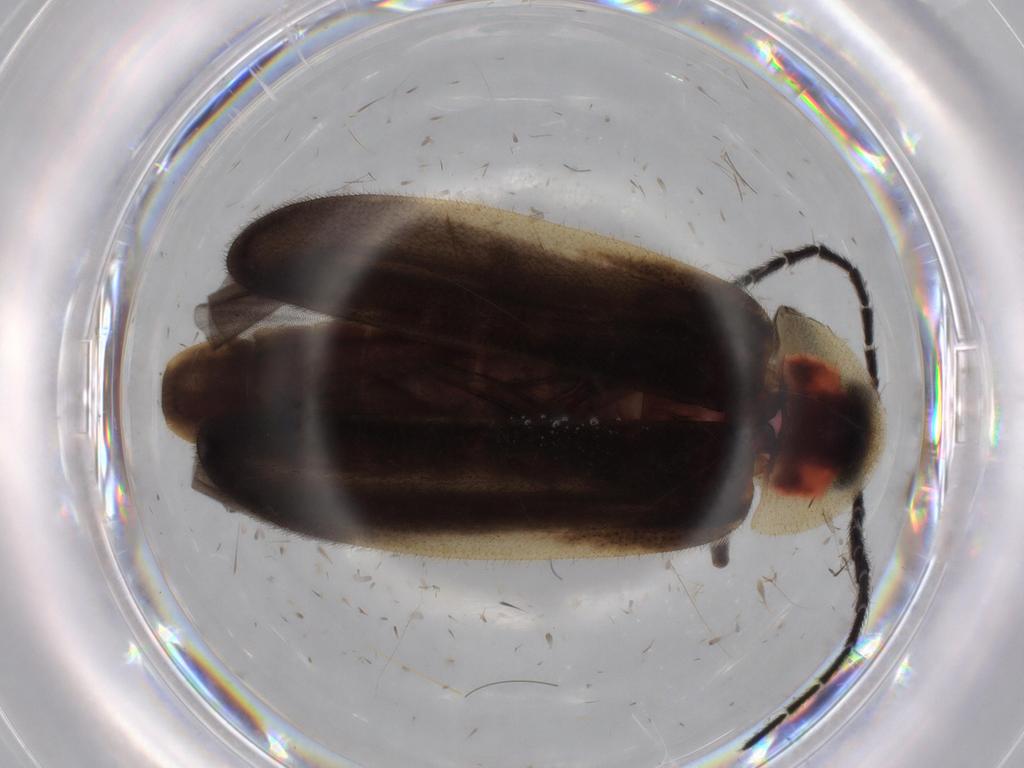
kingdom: Animalia
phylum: Arthropoda
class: Insecta
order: Coleoptera
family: Lampyridae
